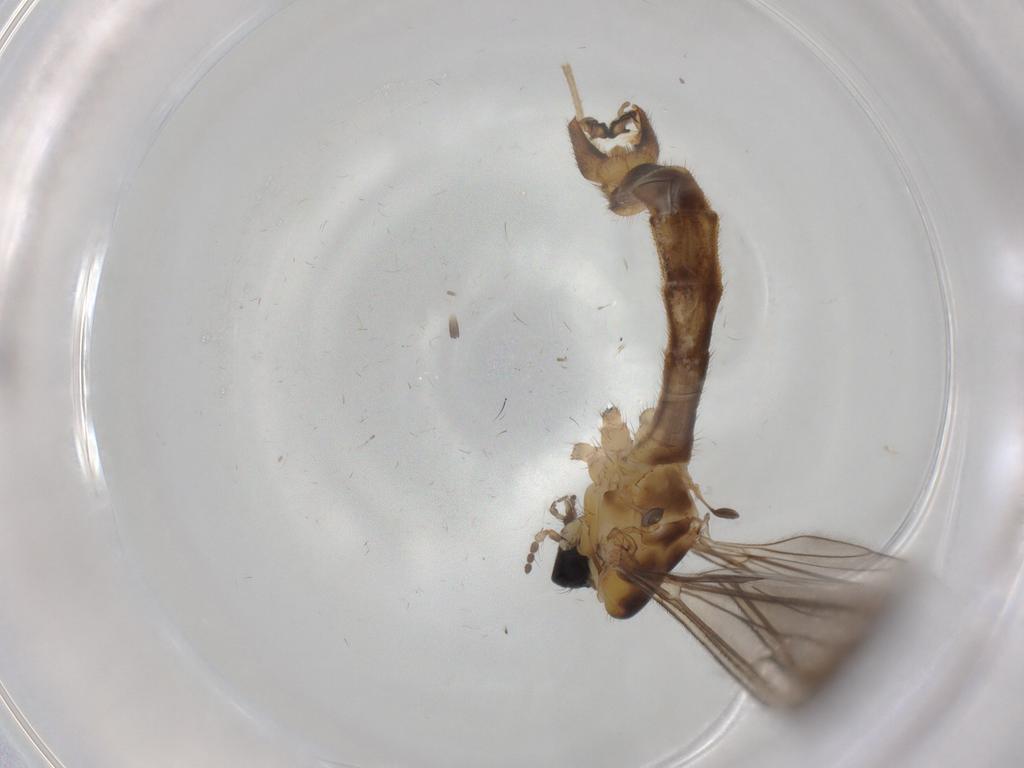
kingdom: Animalia
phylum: Arthropoda
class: Insecta
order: Diptera
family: Limoniidae
